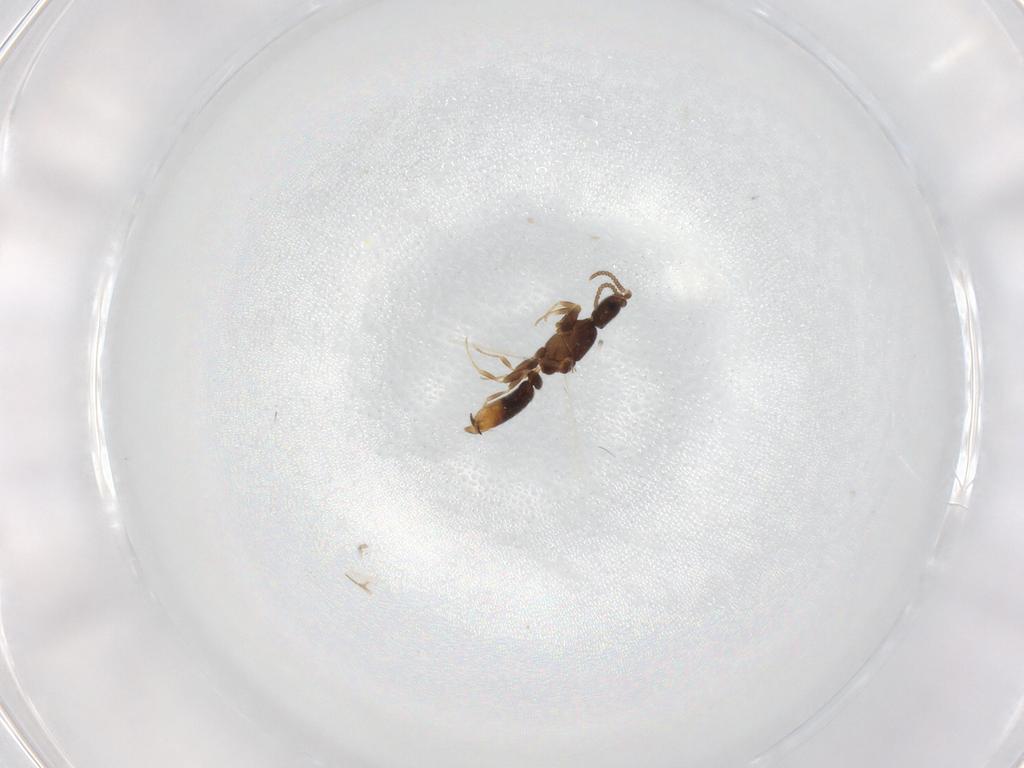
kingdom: Animalia
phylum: Arthropoda
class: Insecta
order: Hymenoptera
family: Formicidae
